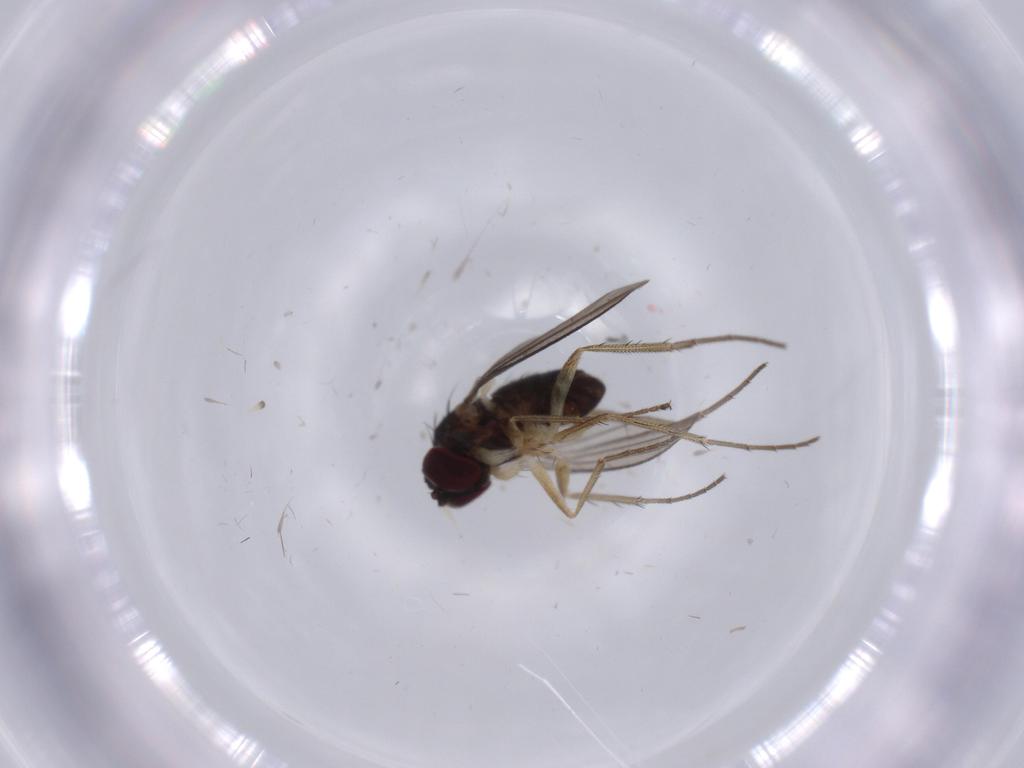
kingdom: Animalia
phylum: Arthropoda
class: Insecta
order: Diptera
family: Dolichopodidae
